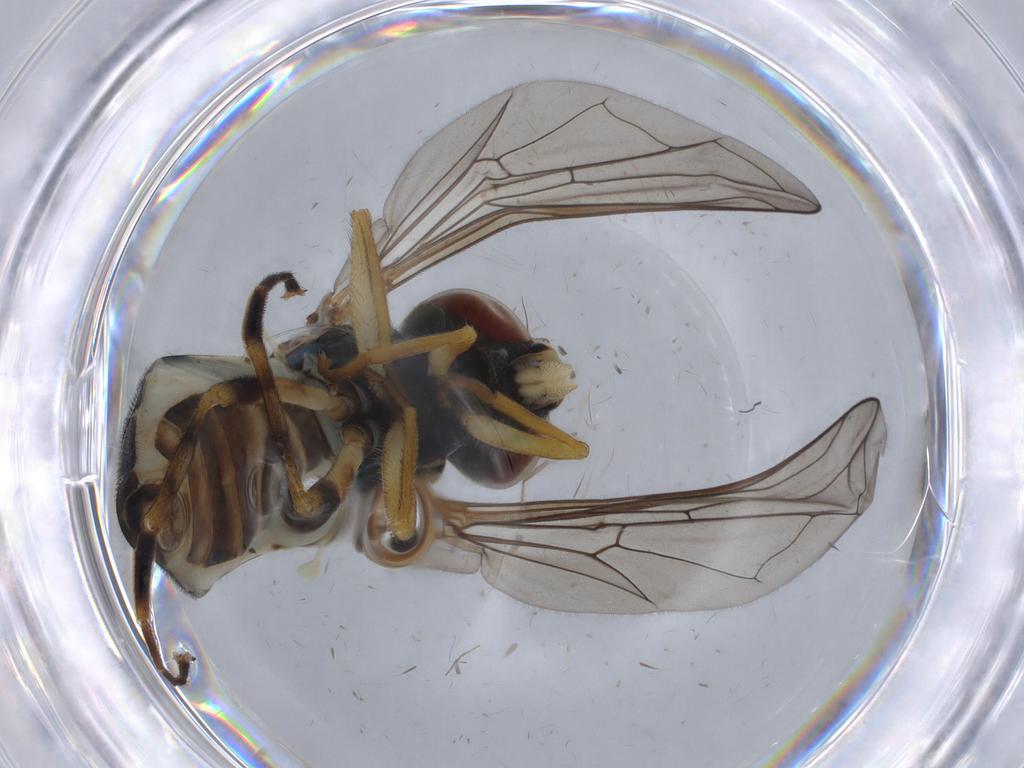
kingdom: Animalia
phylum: Arthropoda
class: Insecta
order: Diptera
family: Syrphidae
